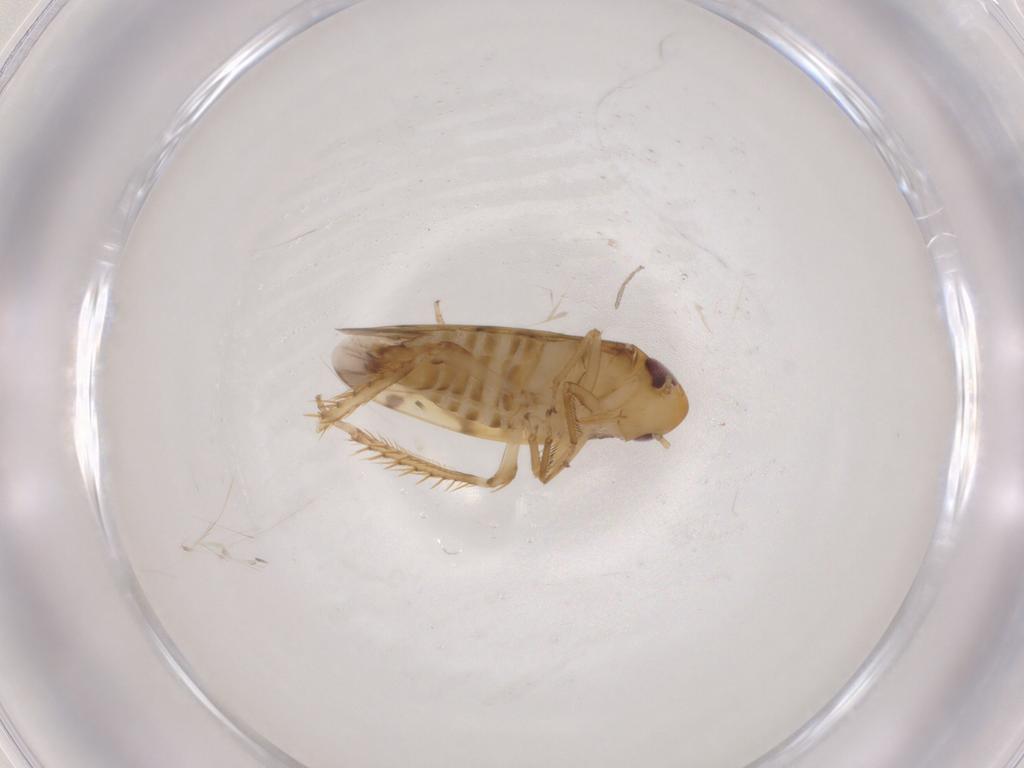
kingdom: Animalia
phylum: Arthropoda
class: Insecta
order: Hemiptera
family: Cicadellidae
